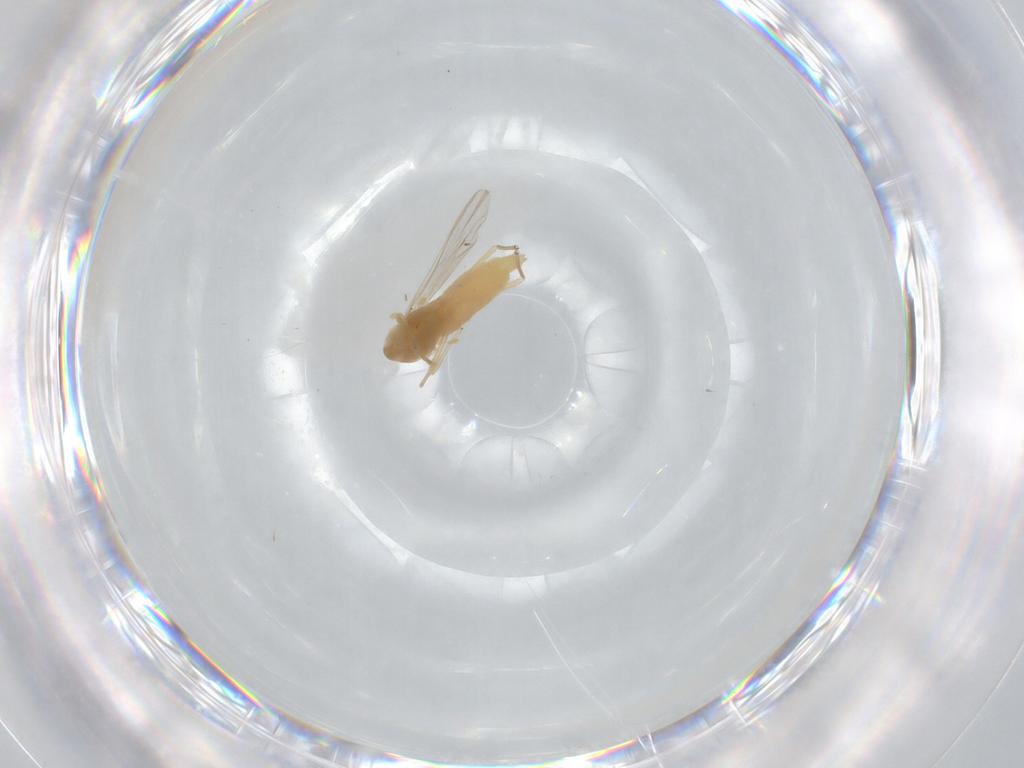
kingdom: Animalia
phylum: Arthropoda
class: Insecta
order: Diptera
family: Chironomidae
